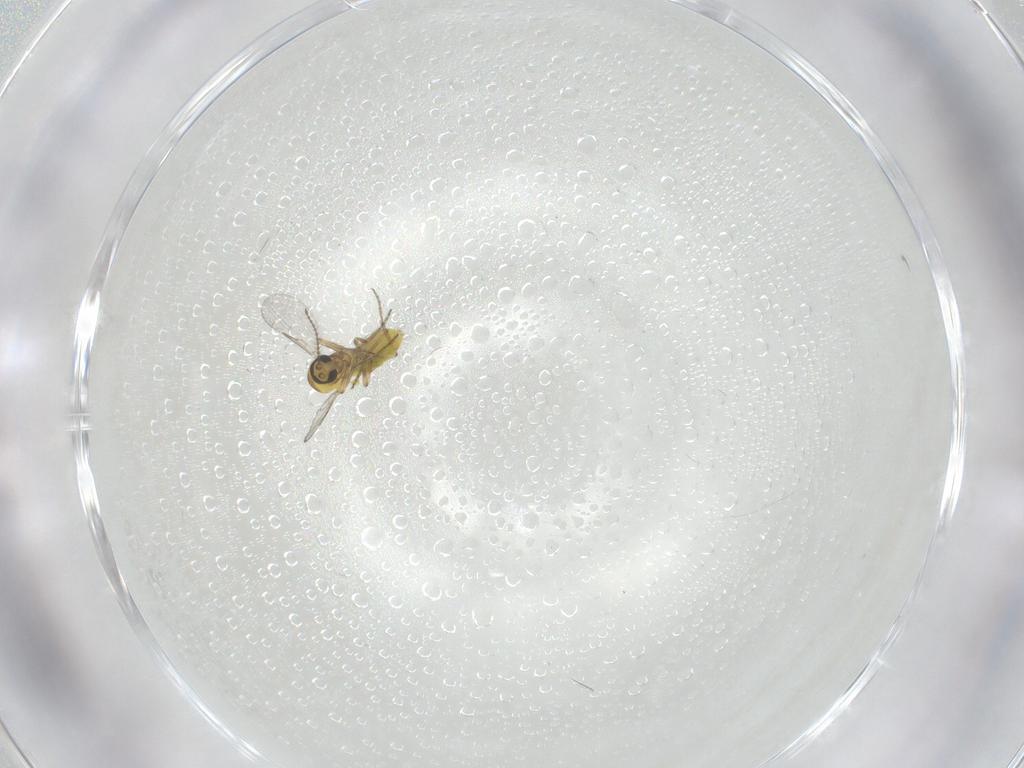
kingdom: Animalia
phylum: Arthropoda
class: Insecta
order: Diptera
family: Ceratopogonidae
